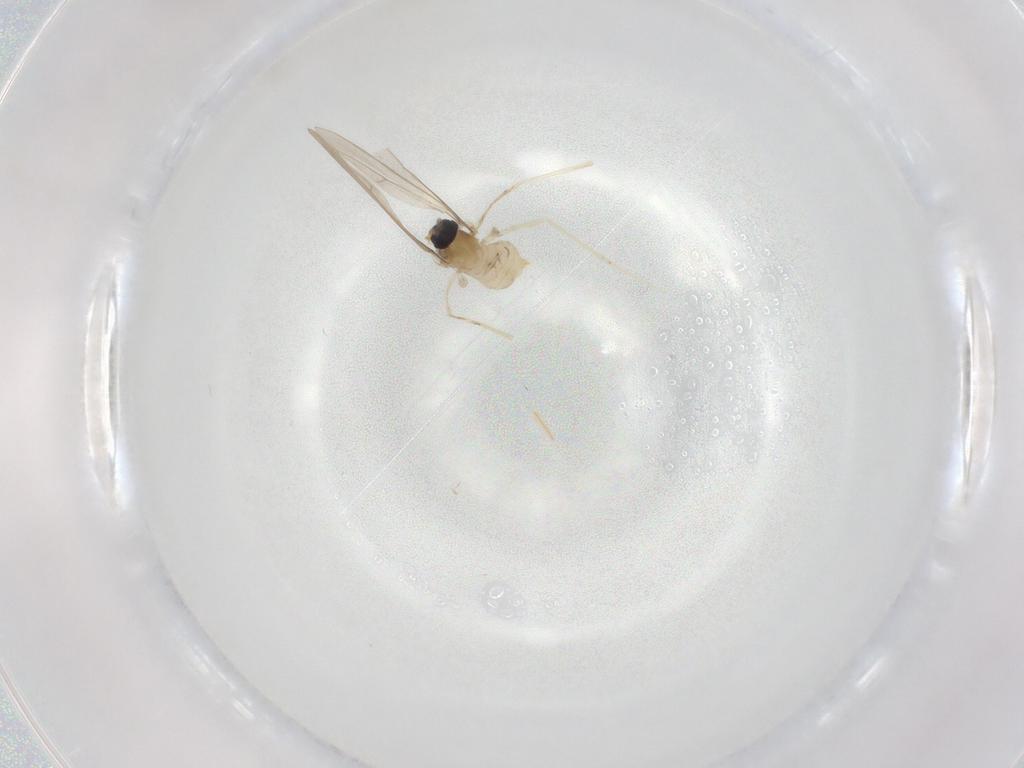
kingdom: Animalia
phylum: Arthropoda
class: Insecta
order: Diptera
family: Cecidomyiidae
